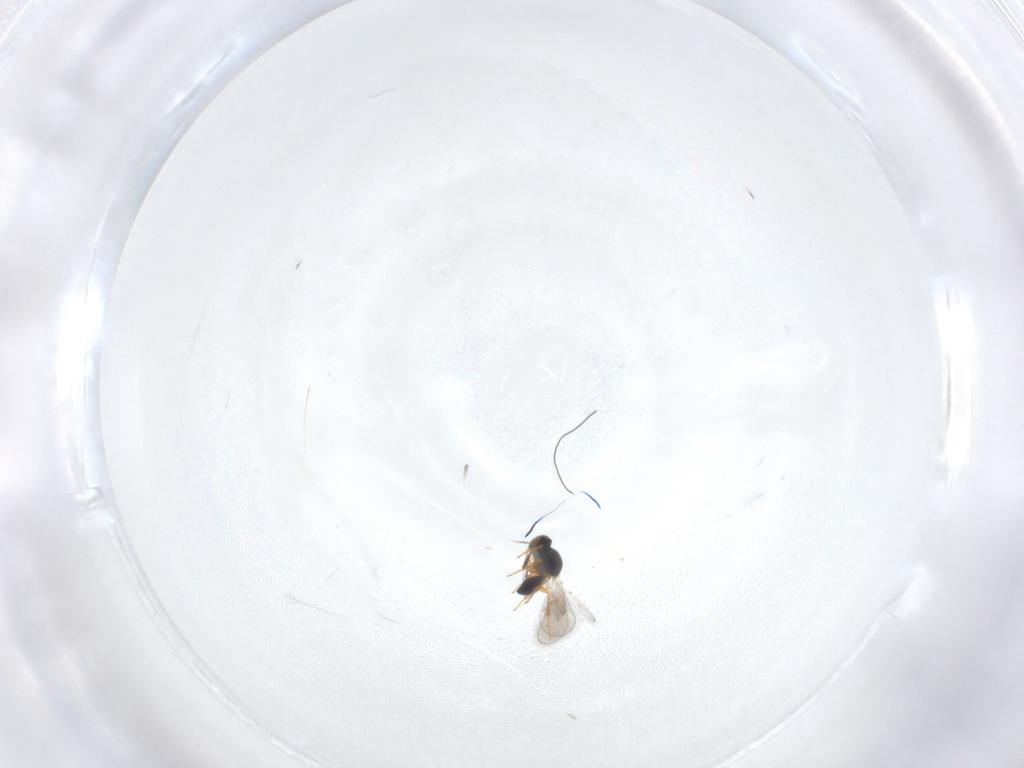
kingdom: Animalia
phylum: Arthropoda
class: Insecta
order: Hymenoptera
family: Platygastridae
